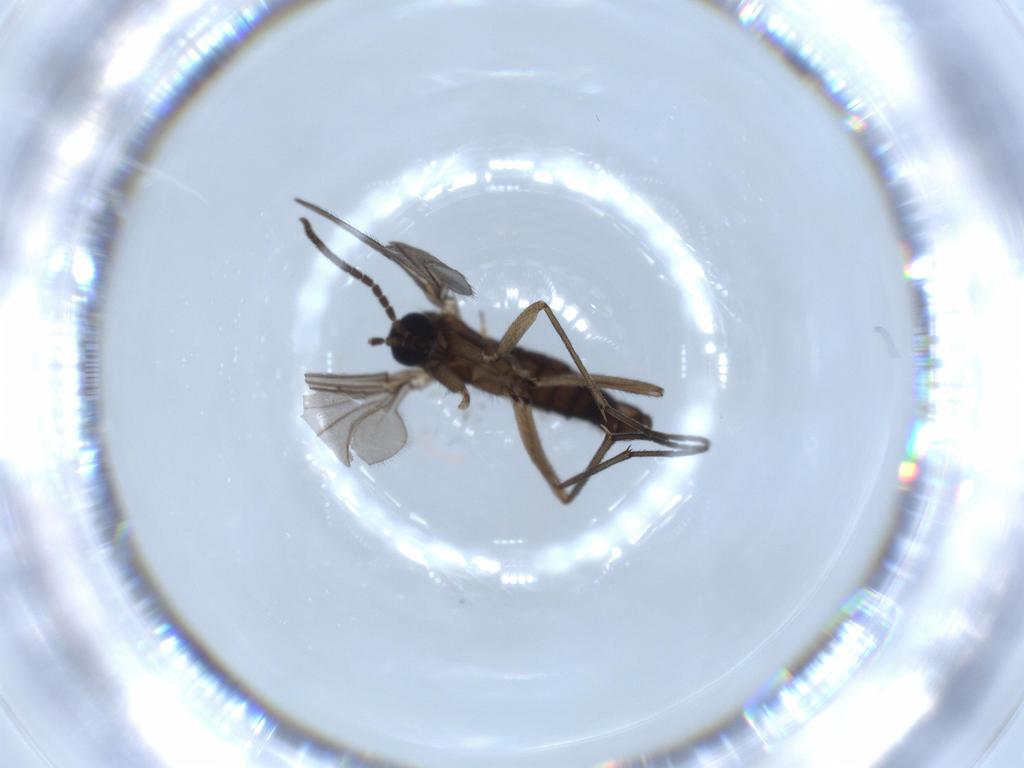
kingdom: Animalia
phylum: Arthropoda
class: Insecta
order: Diptera
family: Sciaridae
